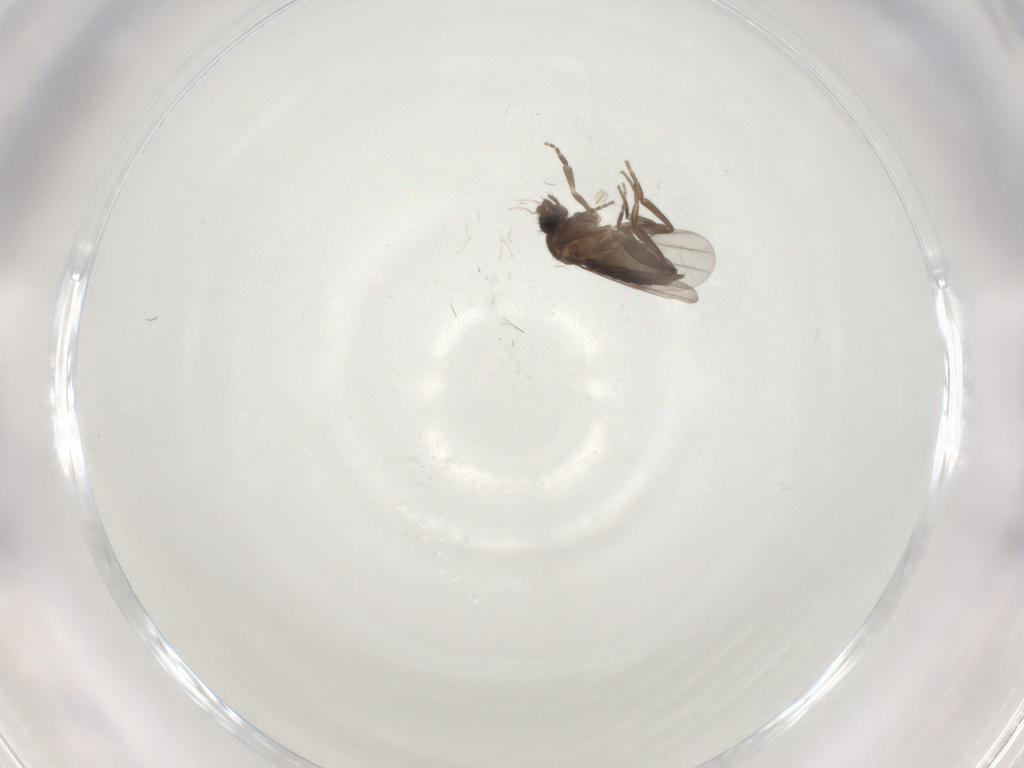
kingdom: Animalia
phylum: Arthropoda
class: Insecta
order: Diptera
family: Phoridae
